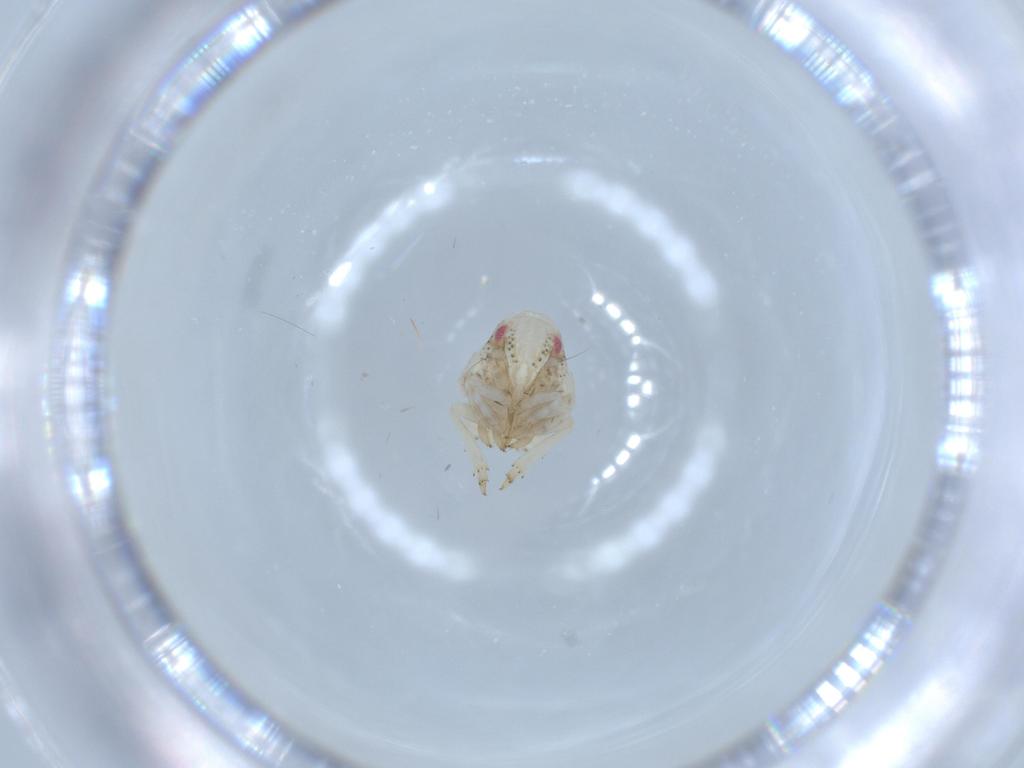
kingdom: Animalia
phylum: Arthropoda
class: Insecta
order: Hemiptera
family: Acanaloniidae
